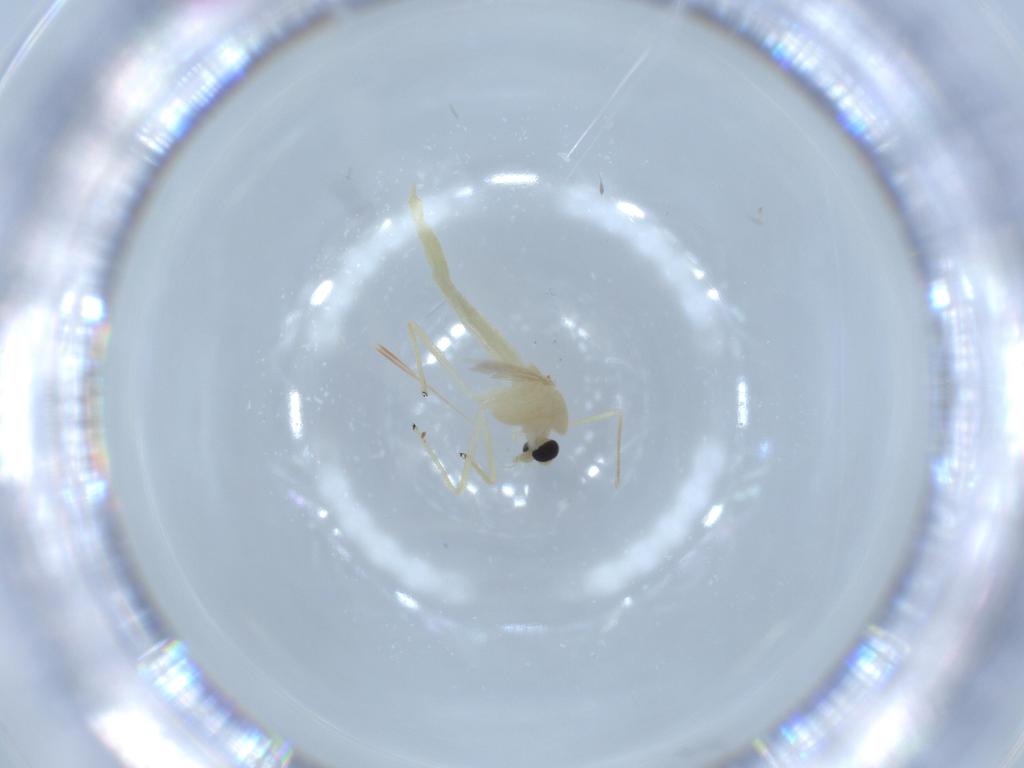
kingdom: Animalia
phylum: Arthropoda
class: Insecta
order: Diptera
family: Chironomidae
